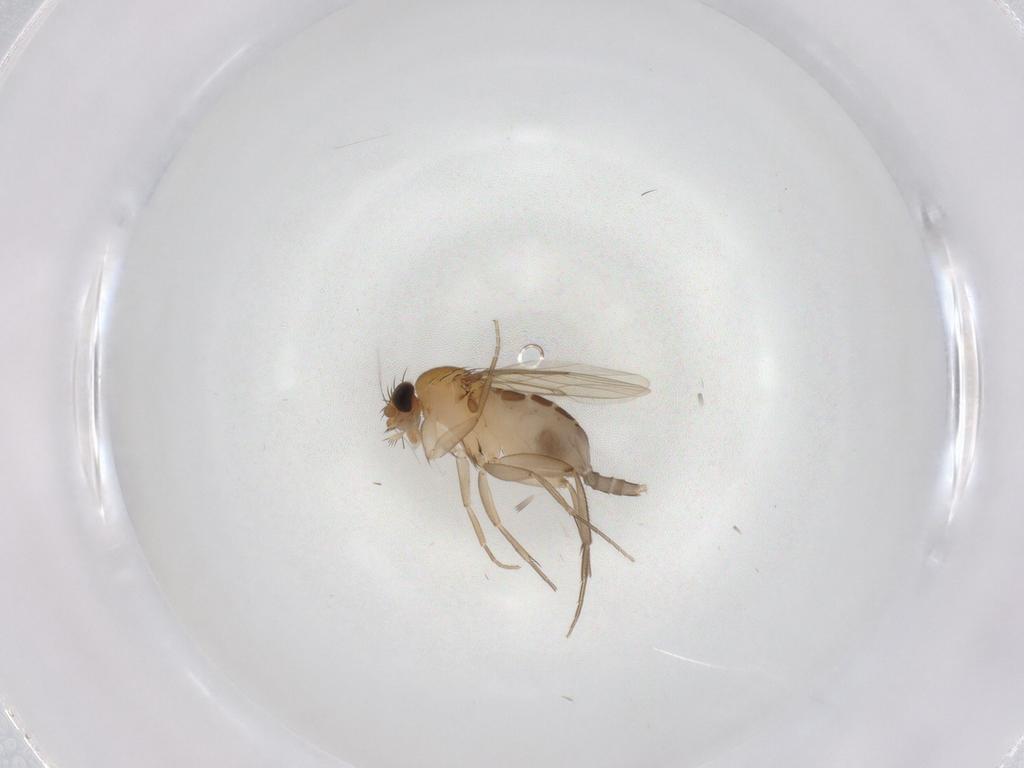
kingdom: Animalia
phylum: Arthropoda
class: Insecta
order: Diptera
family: Phoridae
